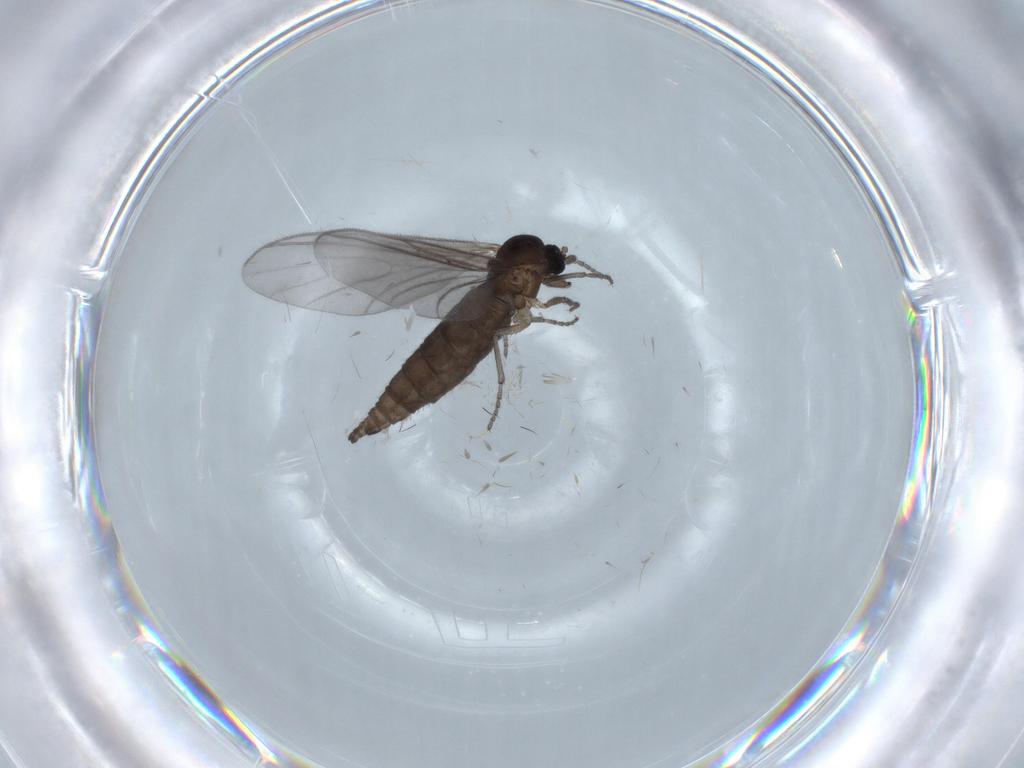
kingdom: Animalia
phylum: Arthropoda
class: Insecta
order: Diptera
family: Sciaridae
